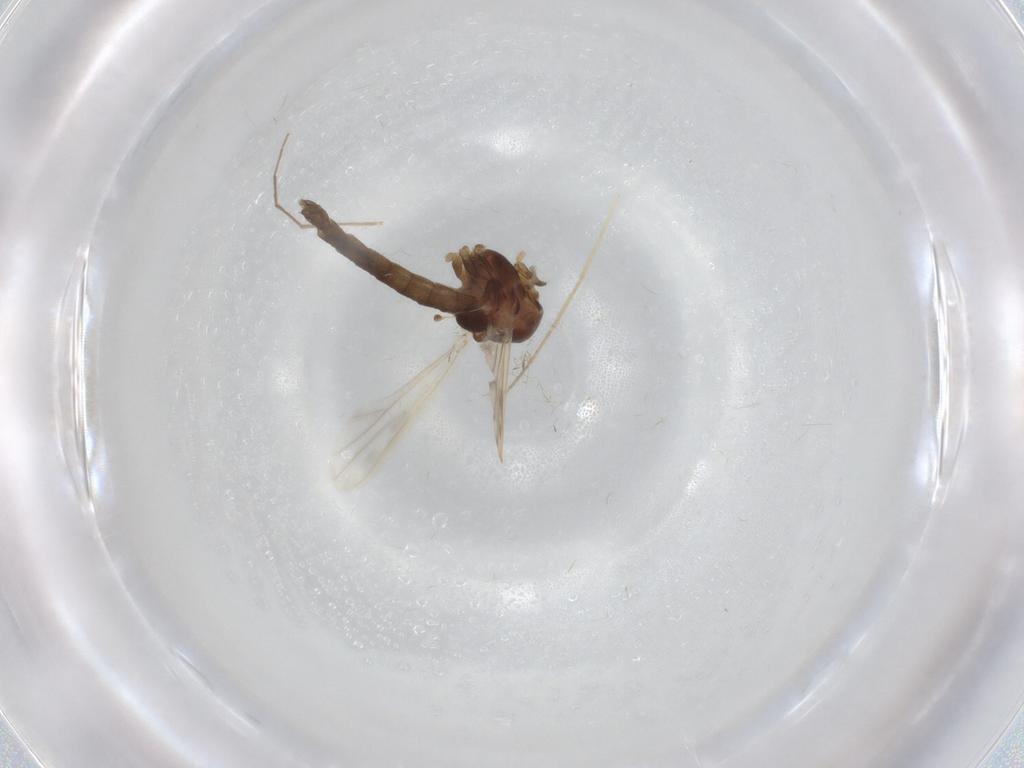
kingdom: Animalia
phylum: Arthropoda
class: Insecta
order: Diptera
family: Chironomidae
